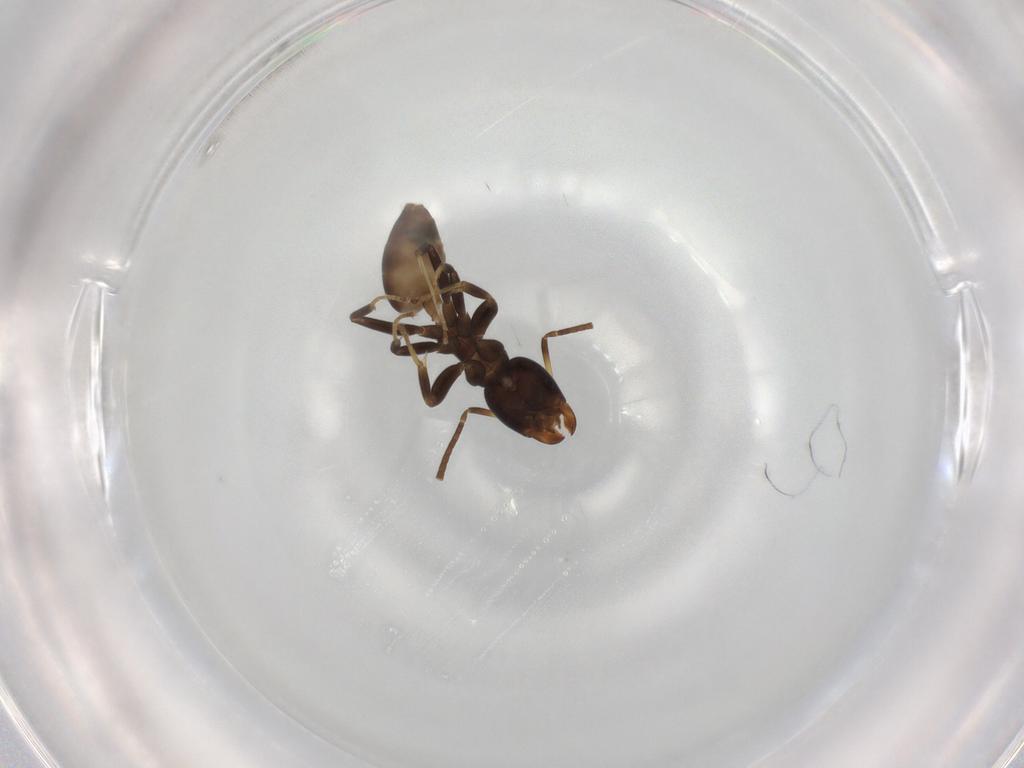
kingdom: Animalia
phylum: Arthropoda
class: Insecta
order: Hymenoptera
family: Formicidae
